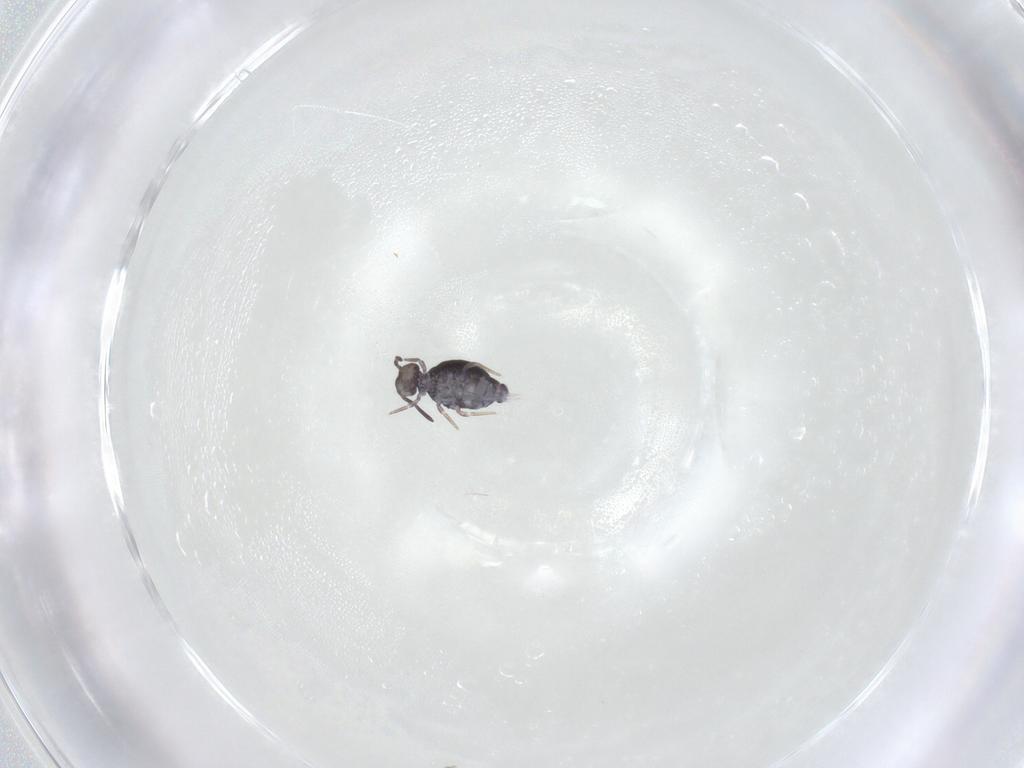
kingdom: Animalia
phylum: Arthropoda
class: Collembola
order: Symphypleona
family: Katiannidae
